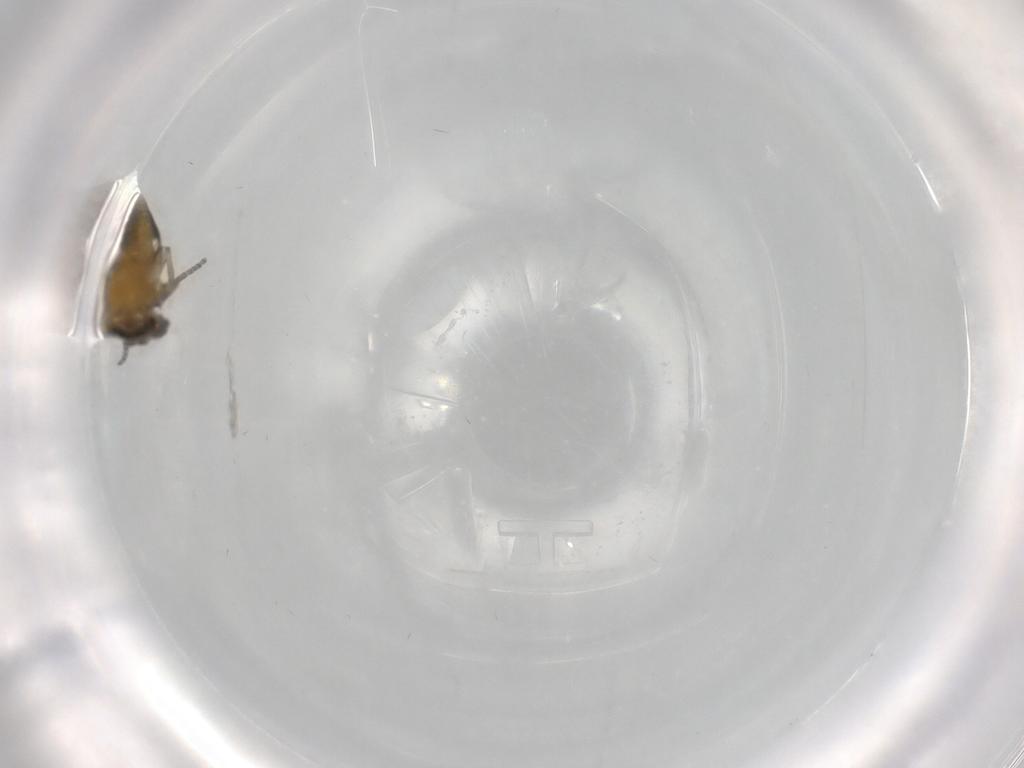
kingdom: Animalia
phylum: Arthropoda
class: Insecta
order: Diptera
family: Ceratopogonidae
